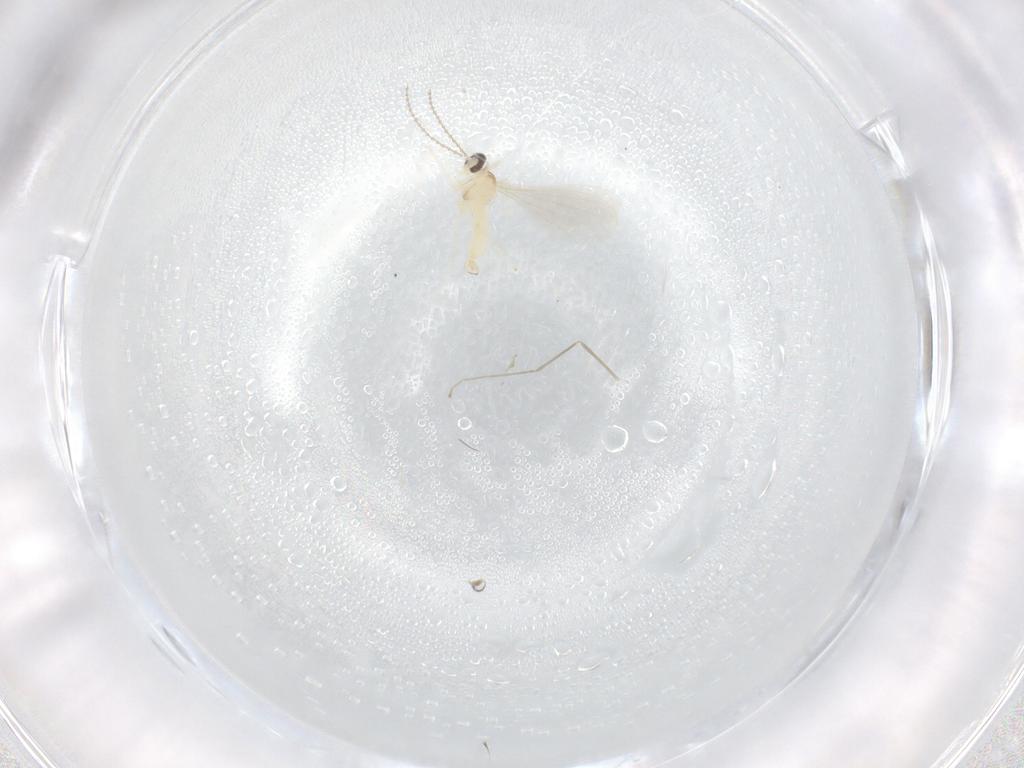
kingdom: Animalia
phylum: Arthropoda
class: Insecta
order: Diptera
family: Cecidomyiidae
